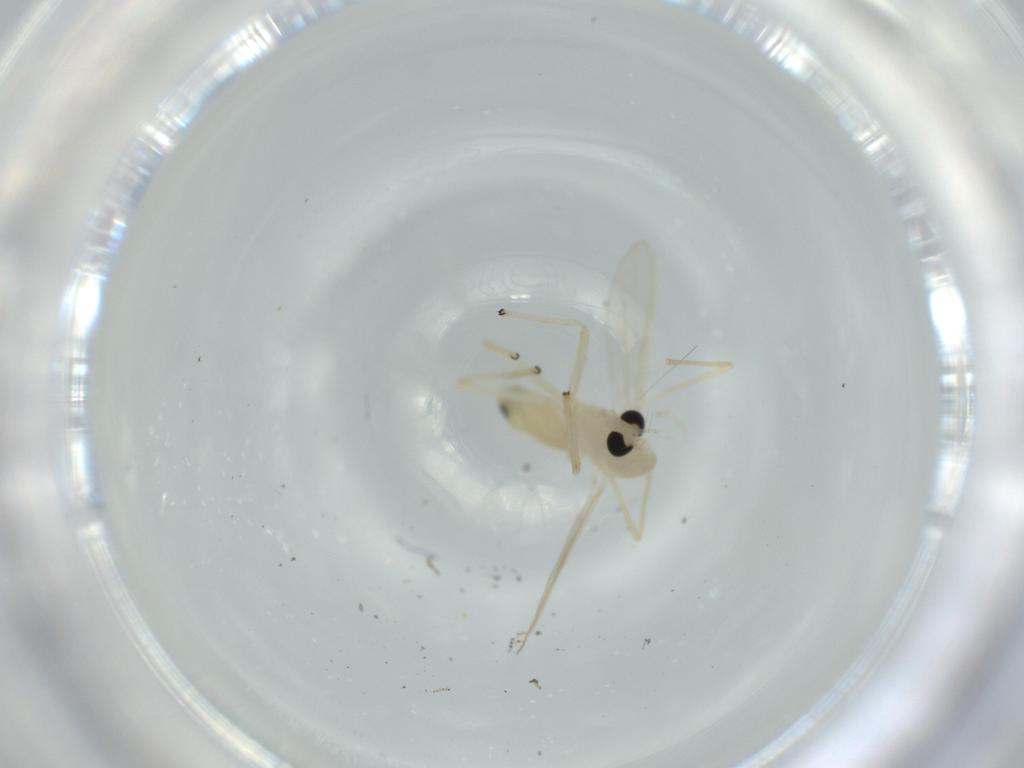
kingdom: Animalia
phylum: Arthropoda
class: Insecta
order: Diptera
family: Chironomidae
